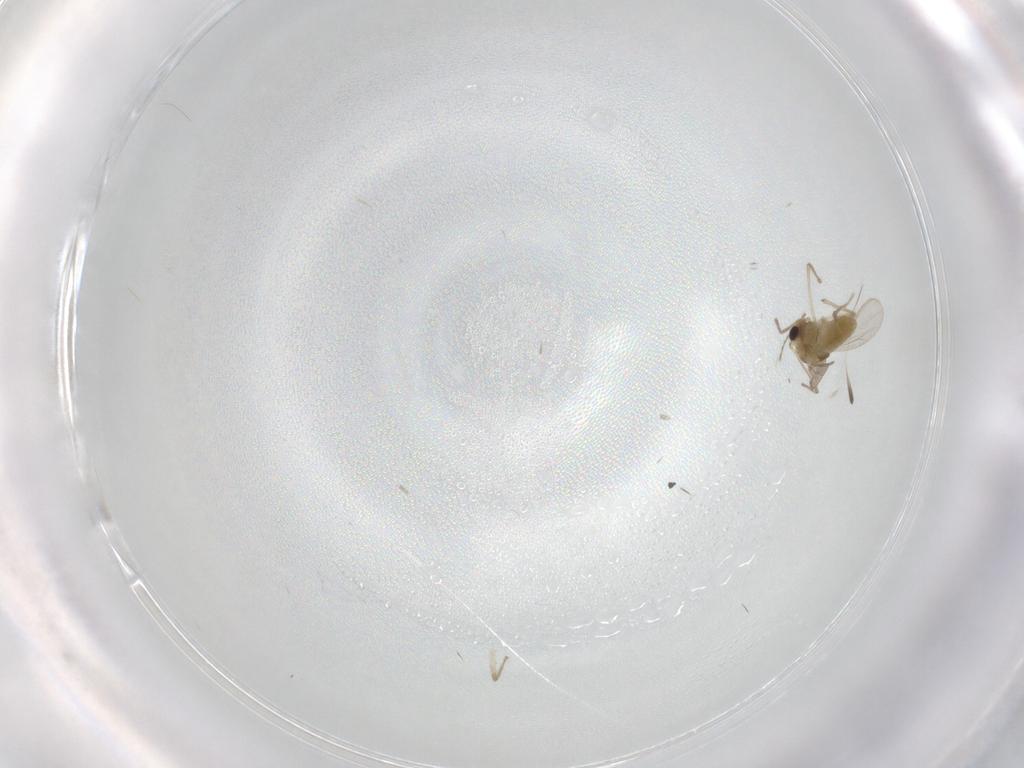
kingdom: Animalia
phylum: Arthropoda
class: Insecta
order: Diptera
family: Chironomidae
